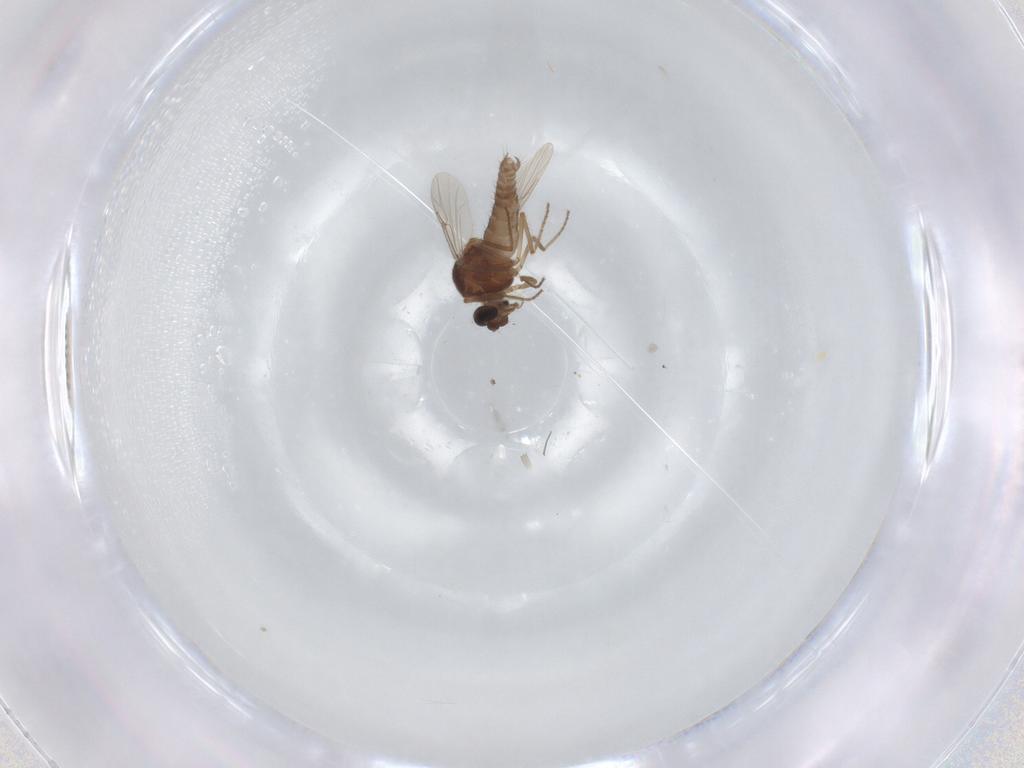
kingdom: Animalia
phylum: Arthropoda
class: Insecta
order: Diptera
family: Ceratopogonidae
